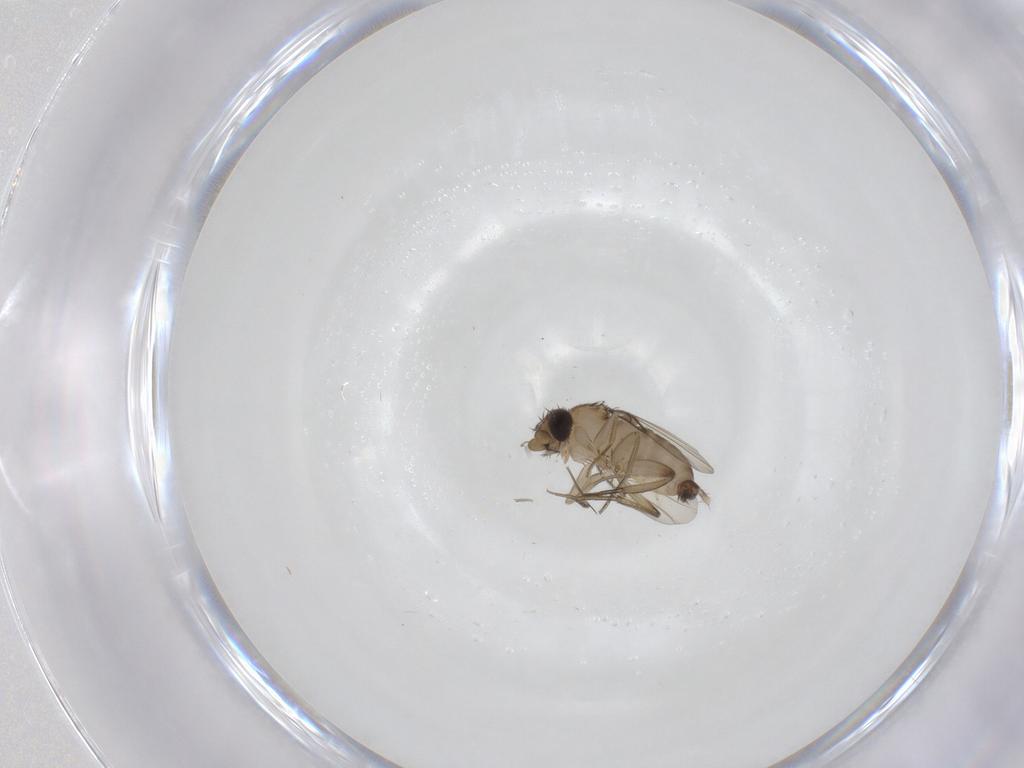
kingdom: Animalia
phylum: Arthropoda
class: Insecta
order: Diptera
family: Phoridae
